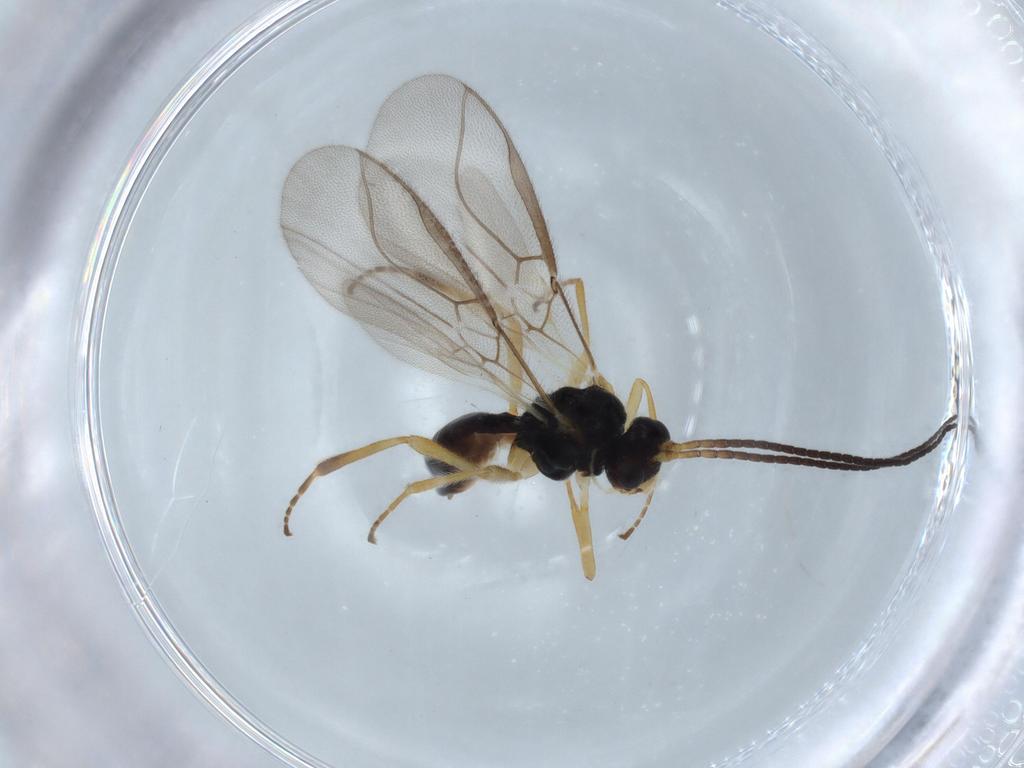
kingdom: Animalia
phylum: Arthropoda
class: Insecta
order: Hymenoptera
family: Braconidae
